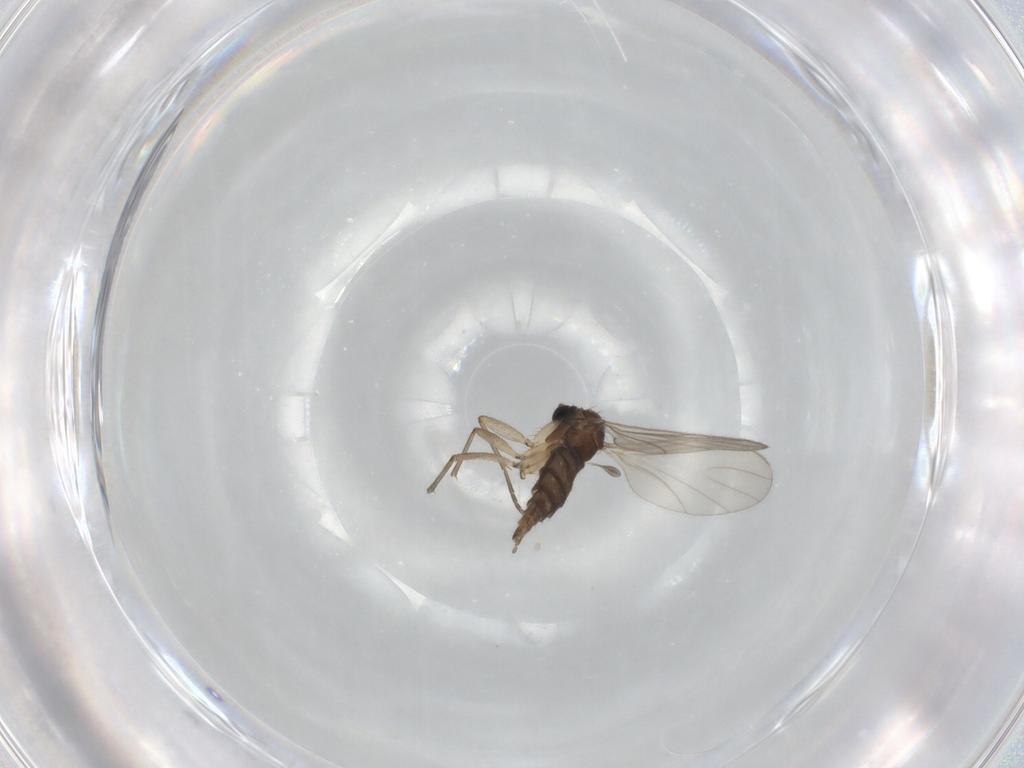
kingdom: Animalia
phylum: Arthropoda
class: Insecta
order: Diptera
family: Sciaridae
